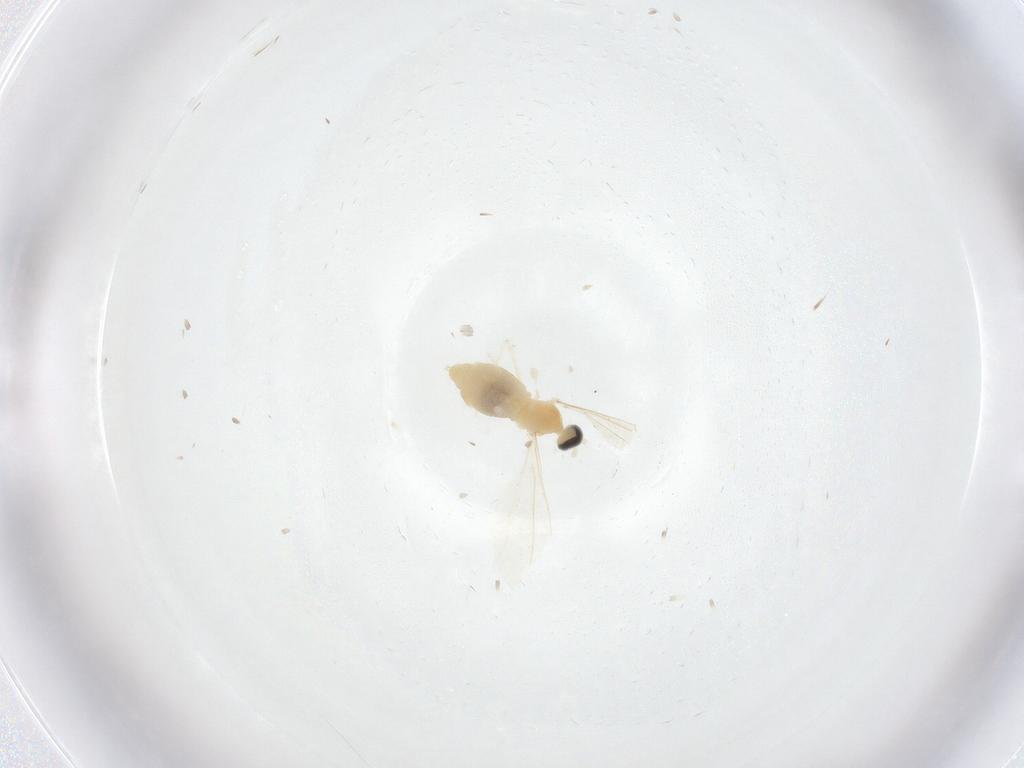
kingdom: Animalia
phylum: Arthropoda
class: Insecta
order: Diptera
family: Cecidomyiidae
